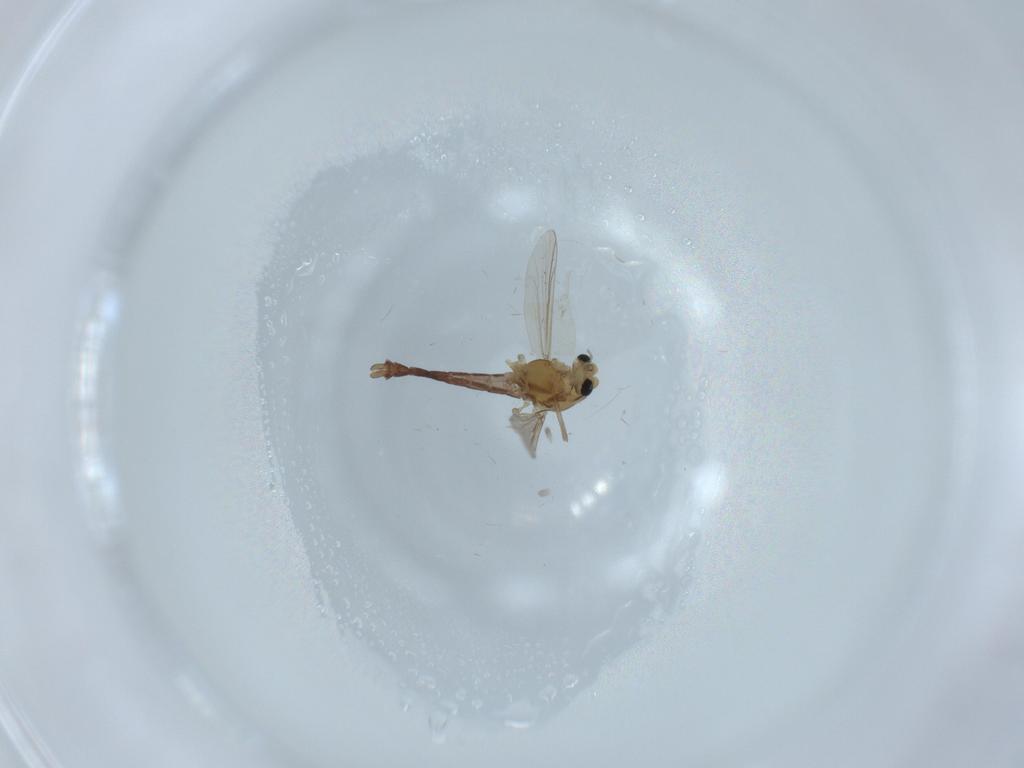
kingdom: Animalia
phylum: Arthropoda
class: Insecta
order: Diptera
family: Chironomidae
